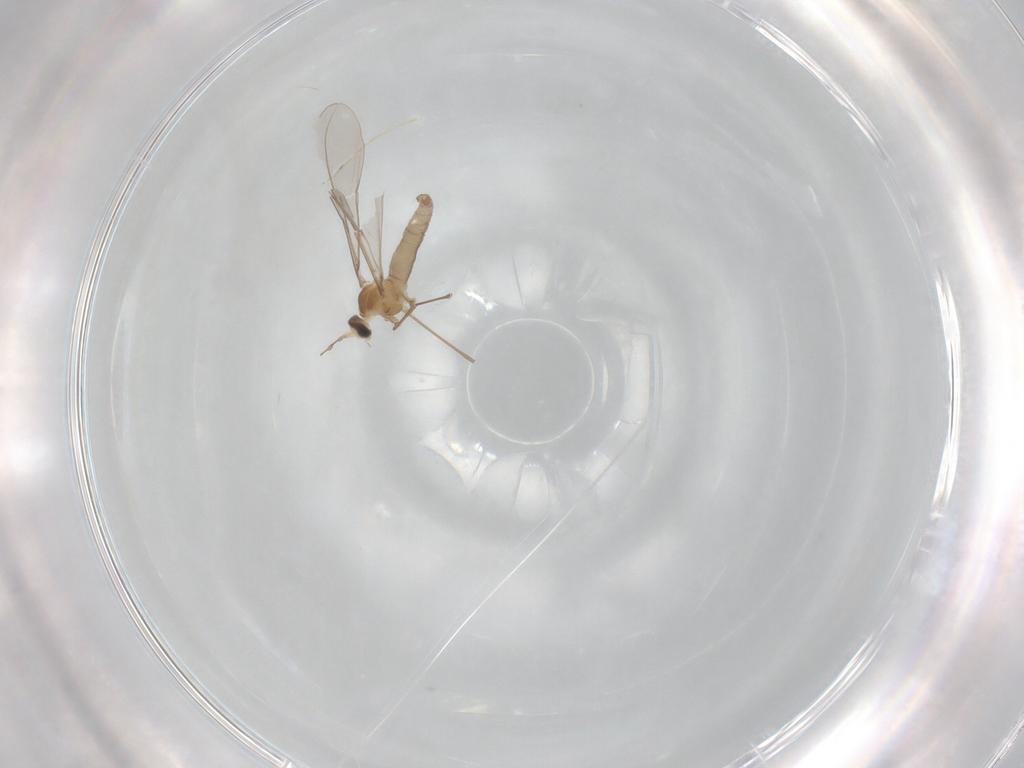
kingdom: Animalia
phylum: Arthropoda
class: Insecta
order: Diptera
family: Cecidomyiidae
